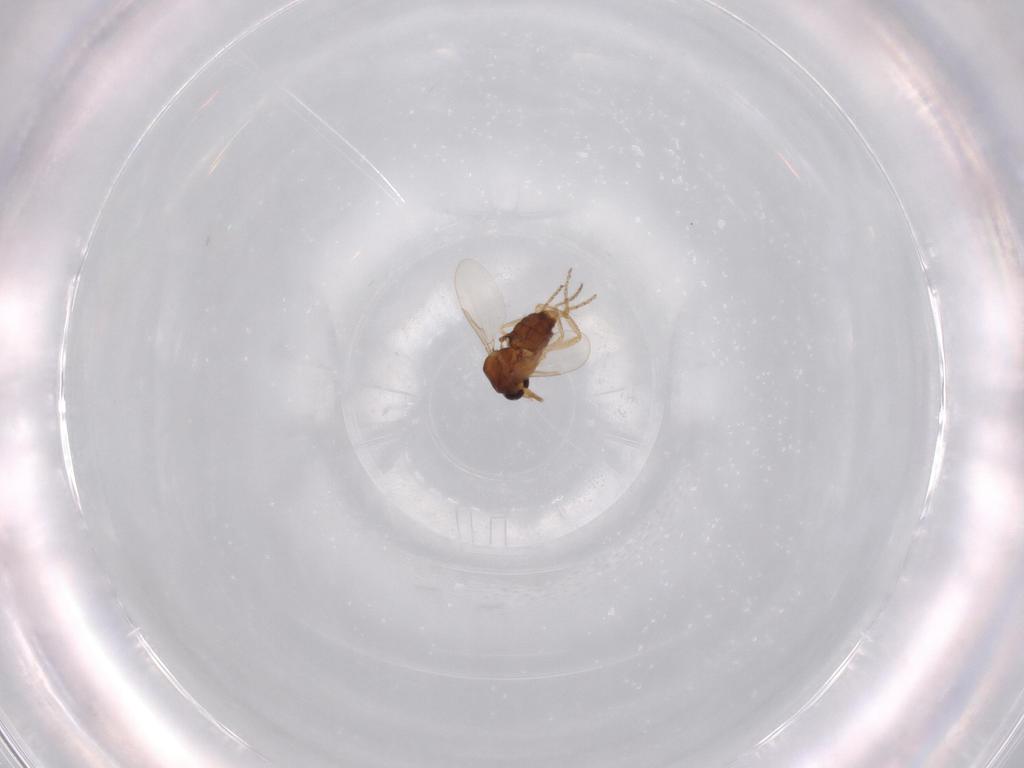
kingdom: Animalia
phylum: Arthropoda
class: Insecta
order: Diptera
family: Ceratopogonidae
